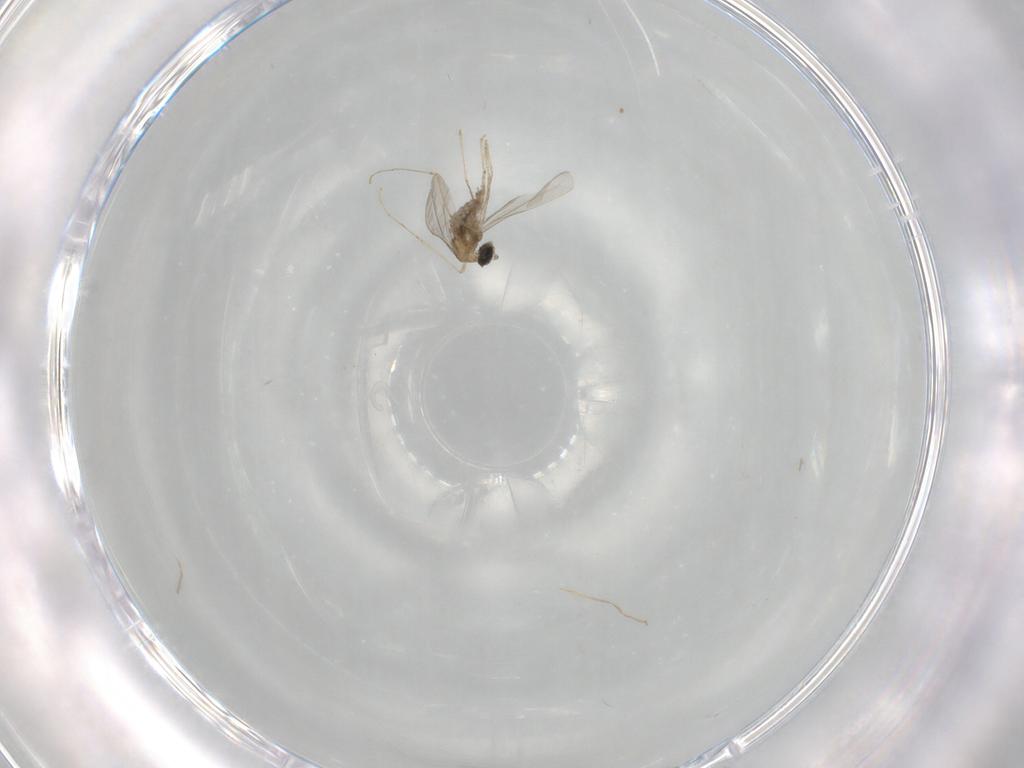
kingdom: Animalia
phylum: Arthropoda
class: Insecta
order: Diptera
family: Cecidomyiidae
